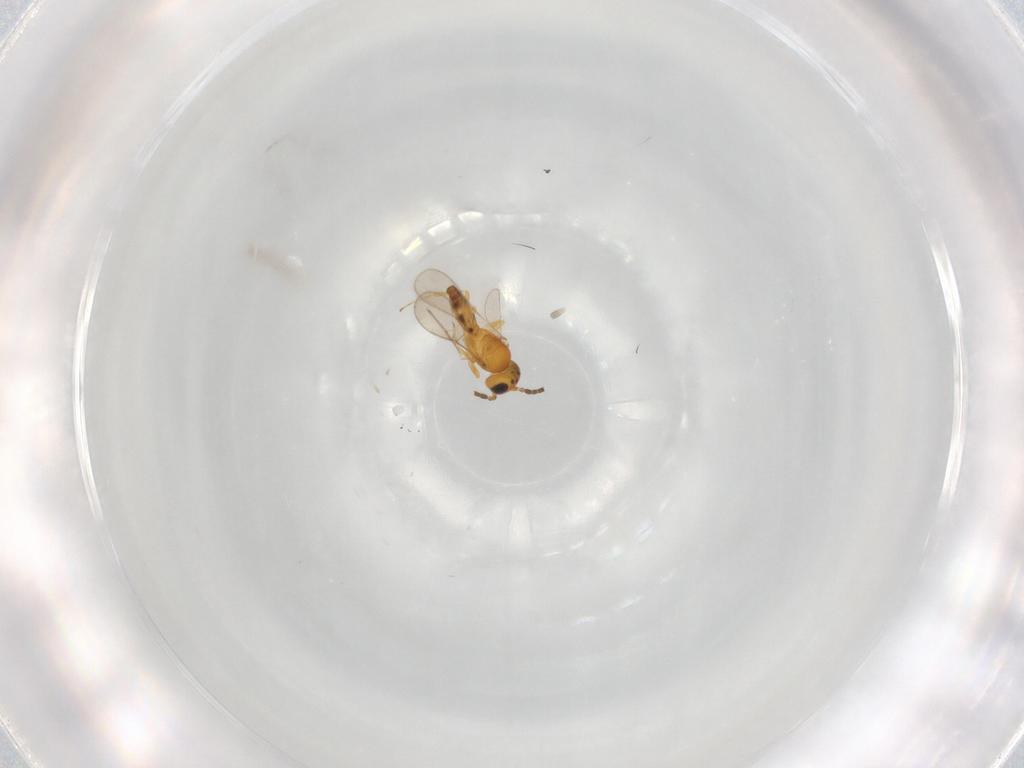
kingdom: Animalia
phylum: Arthropoda
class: Insecta
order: Hymenoptera
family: Scelionidae
